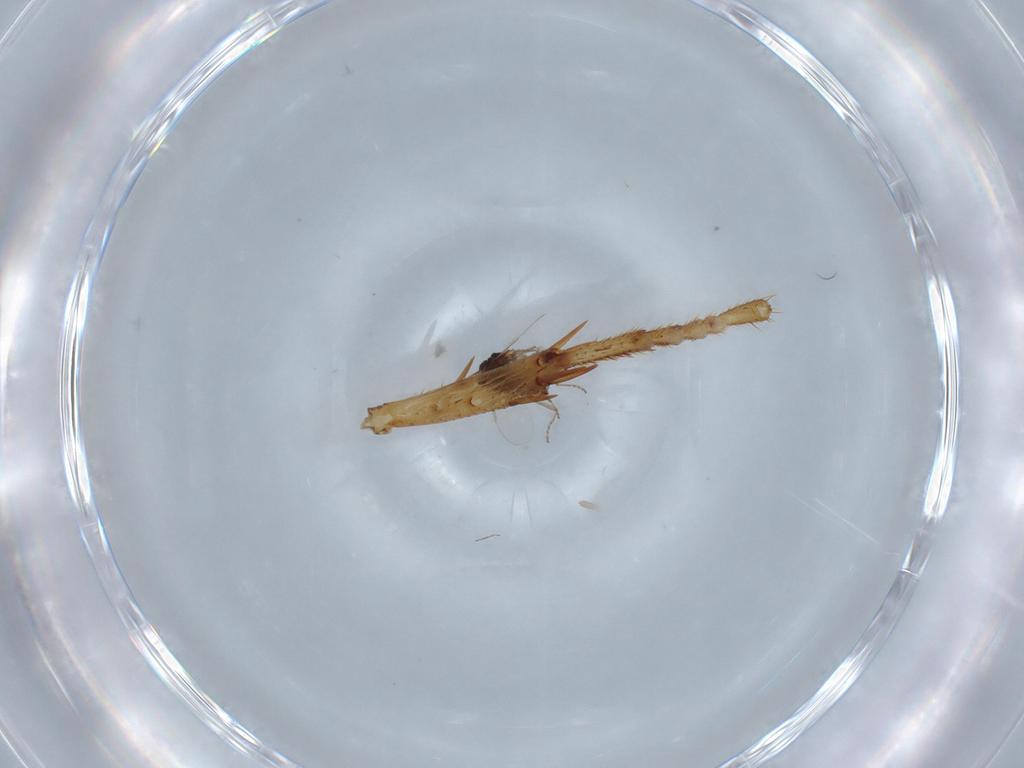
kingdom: Animalia
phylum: Arthropoda
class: Insecta
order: Diptera
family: Ceratopogonidae
